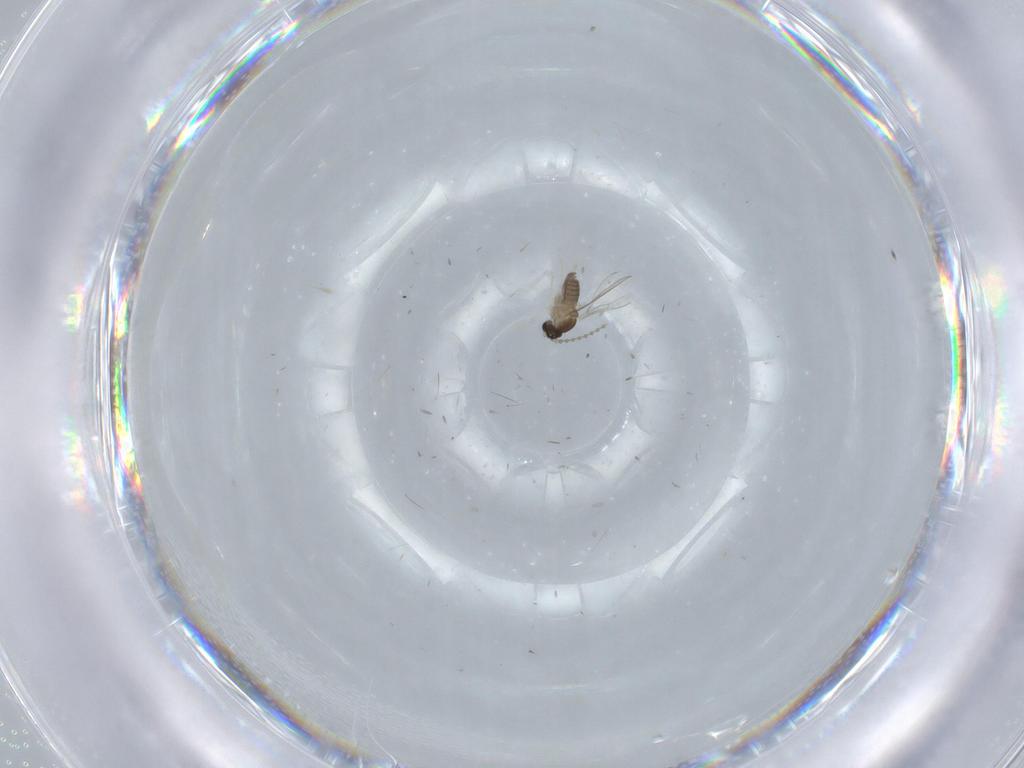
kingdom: Animalia
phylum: Arthropoda
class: Insecta
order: Diptera
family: Cecidomyiidae
